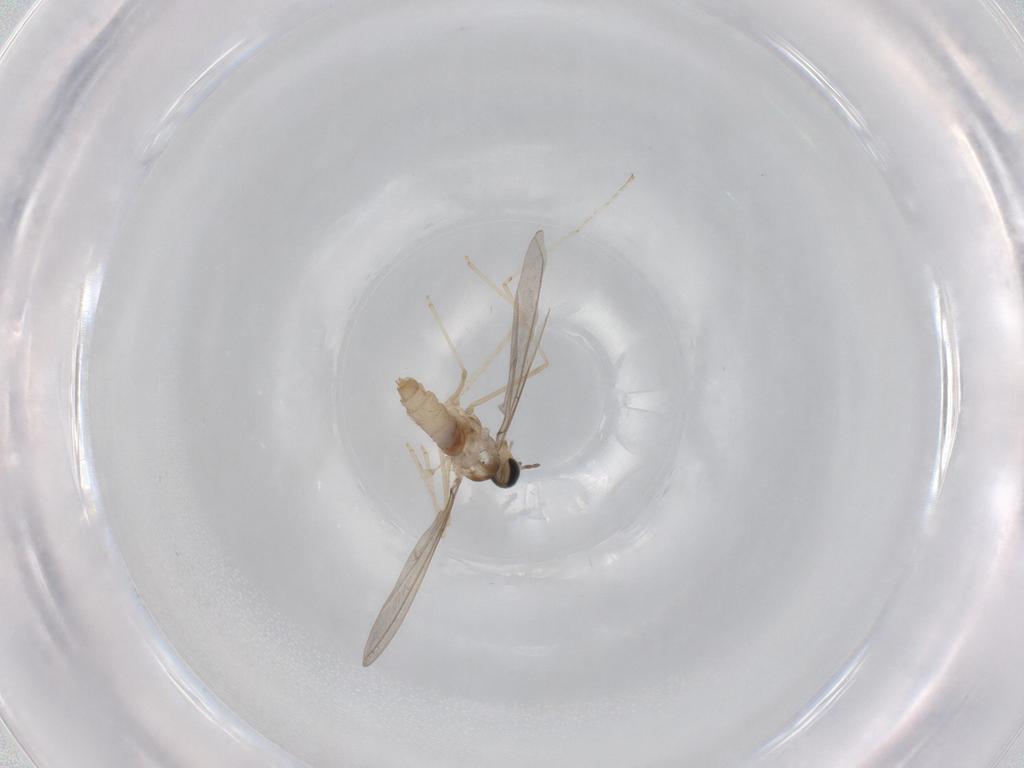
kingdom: Animalia
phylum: Arthropoda
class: Insecta
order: Diptera
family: Cecidomyiidae
